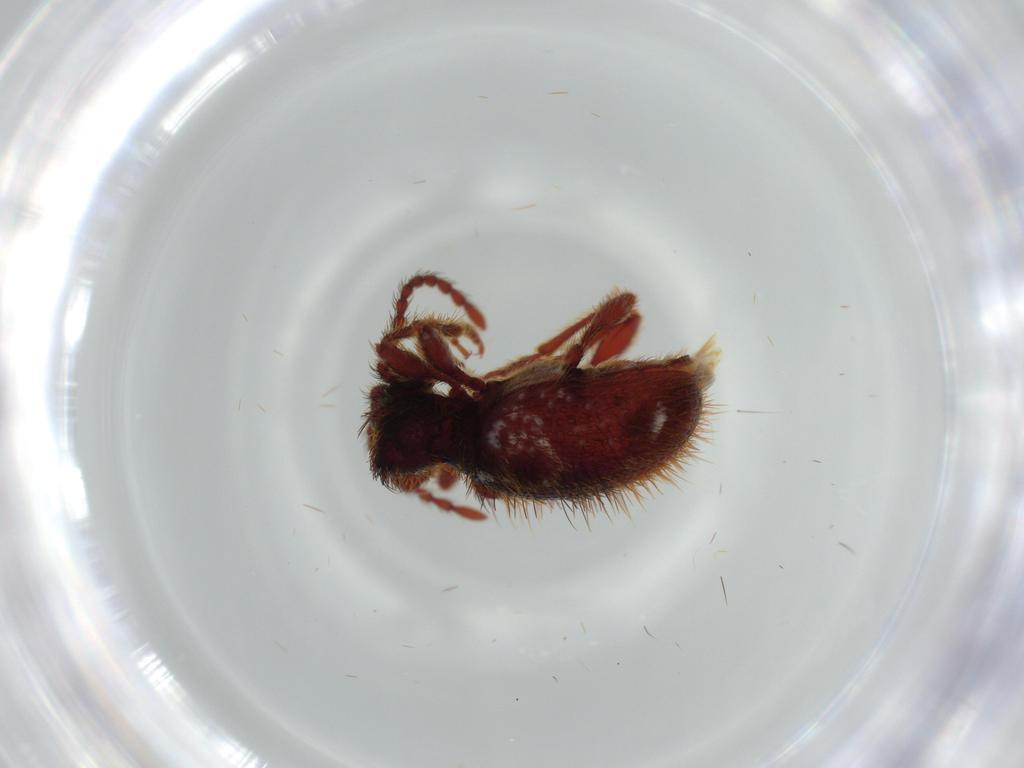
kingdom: Animalia
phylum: Arthropoda
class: Insecta
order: Coleoptera
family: Ptinidae
